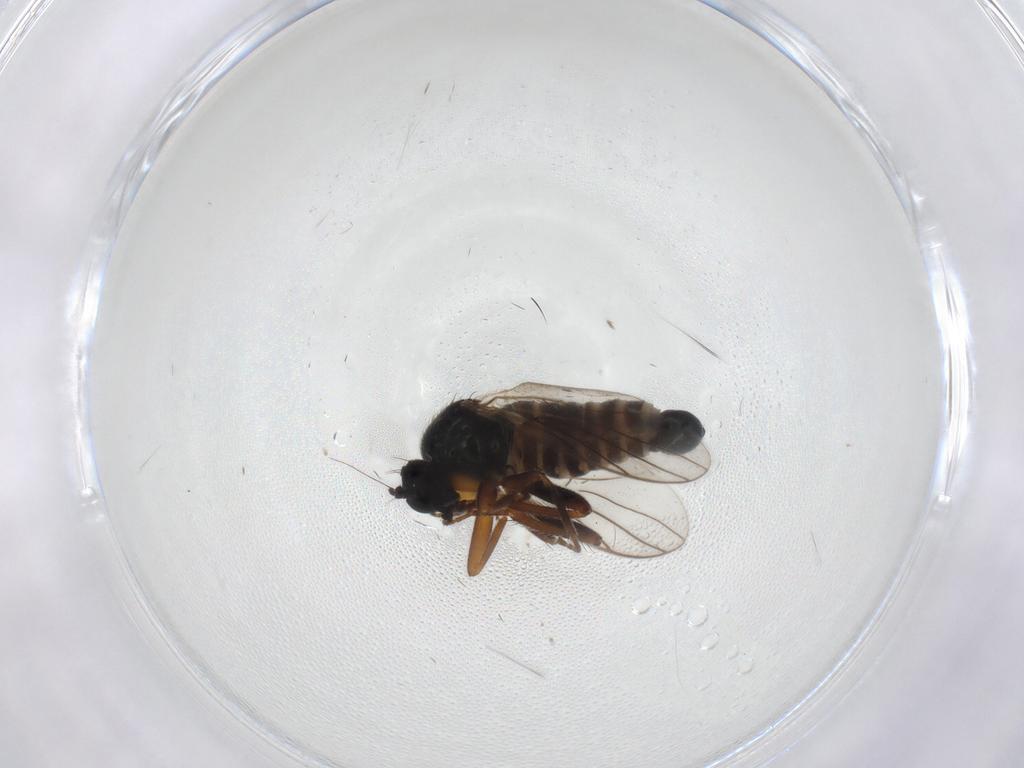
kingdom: Animalia
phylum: Arthropoda
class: Insecta
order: Diptera
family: Hybotidae
